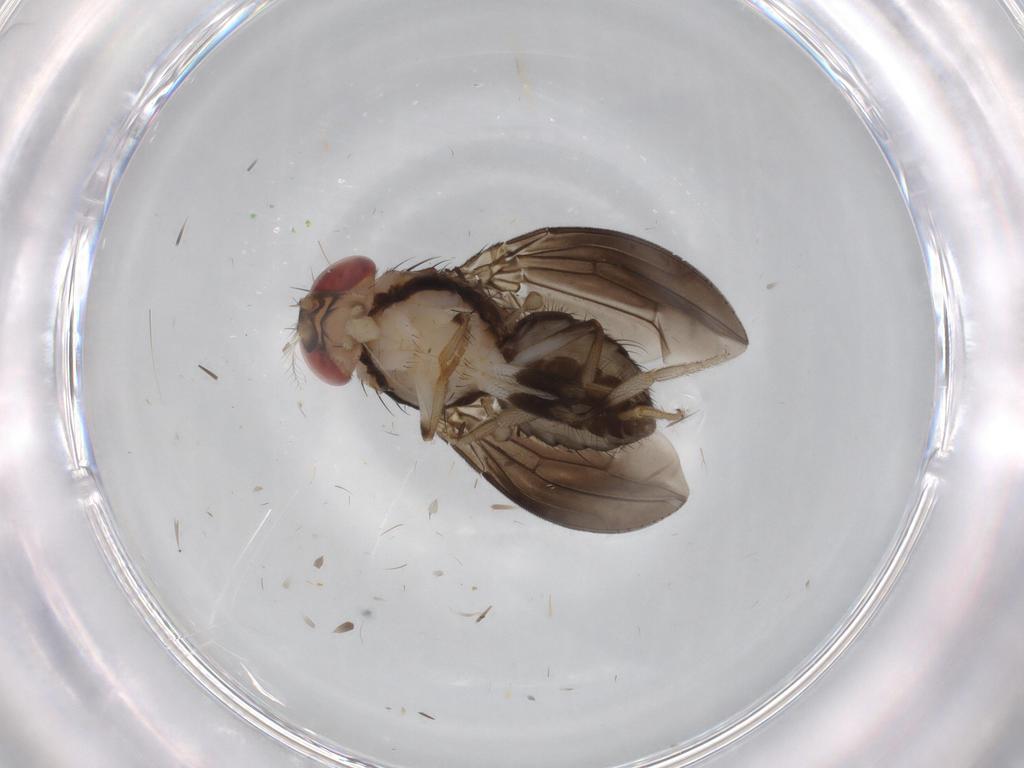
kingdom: Animalia
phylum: Arthropoda
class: Insecta
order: Diptera
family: Drosophilidae
